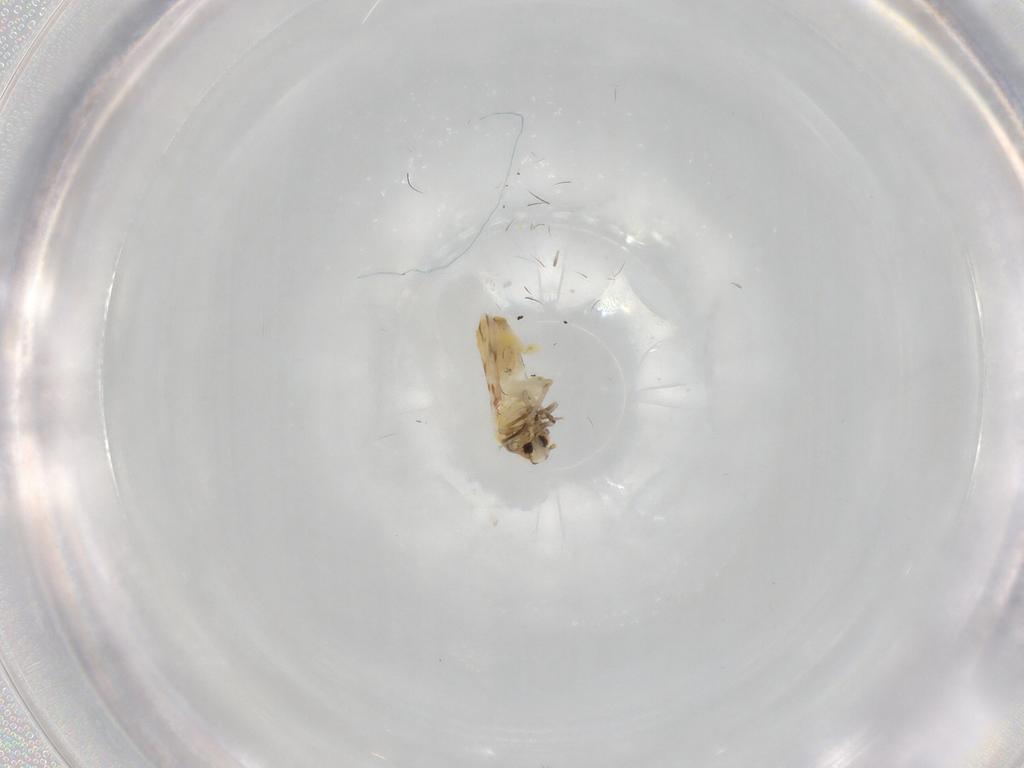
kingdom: Animalia
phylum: Arthropoda
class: Insecta
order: Hemiptera
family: Aleyrodidae
